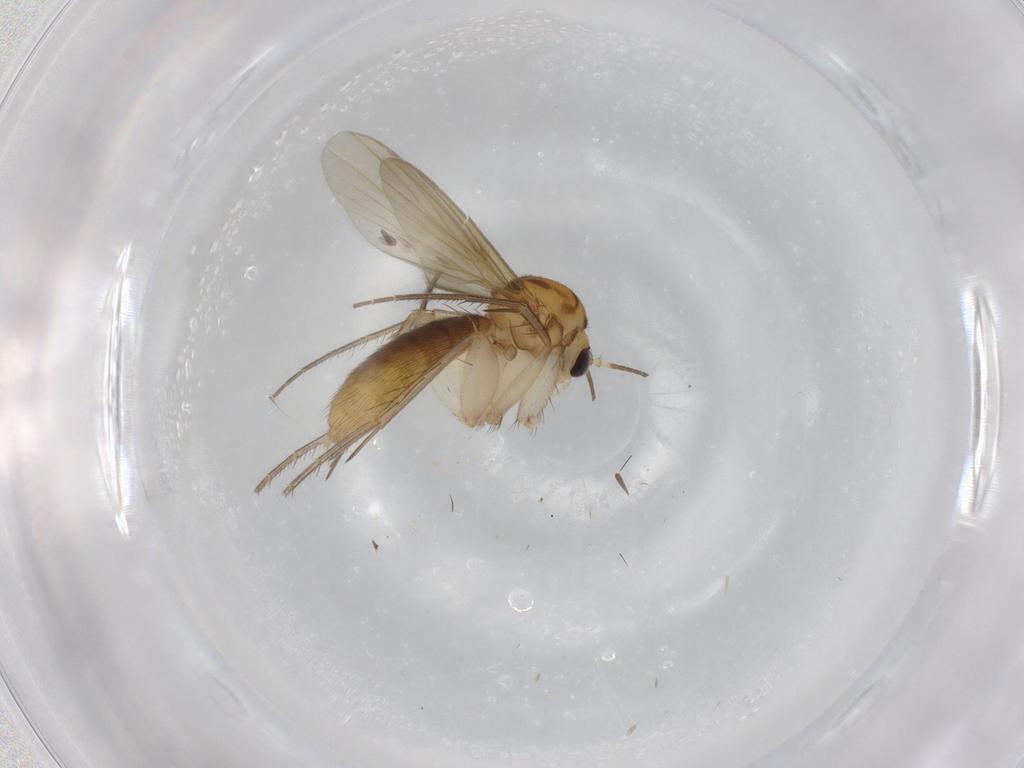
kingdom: Animalia
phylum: Arthropoda
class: Insecta
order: Diptera
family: Mycetophilidae
